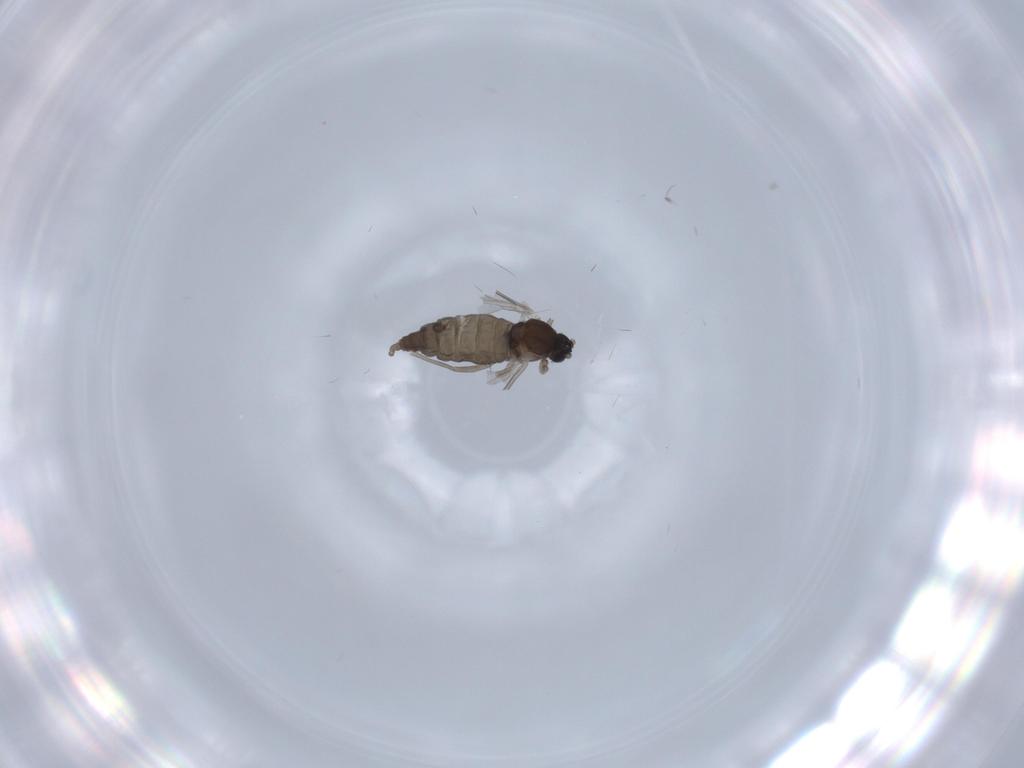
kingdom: Animalia
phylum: Arthropoda
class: Insecta
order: Diptera
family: Cecidomyiidae
